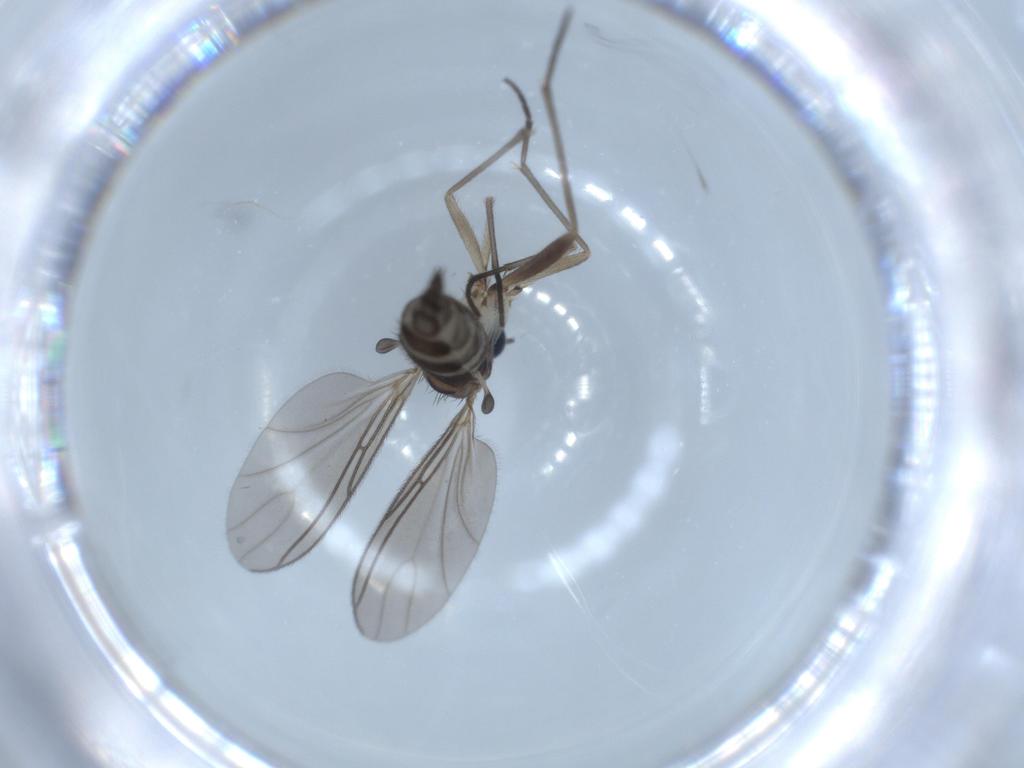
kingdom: Animalia
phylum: Arthropoda
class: Insecta
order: Diptera
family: Sciaridae
